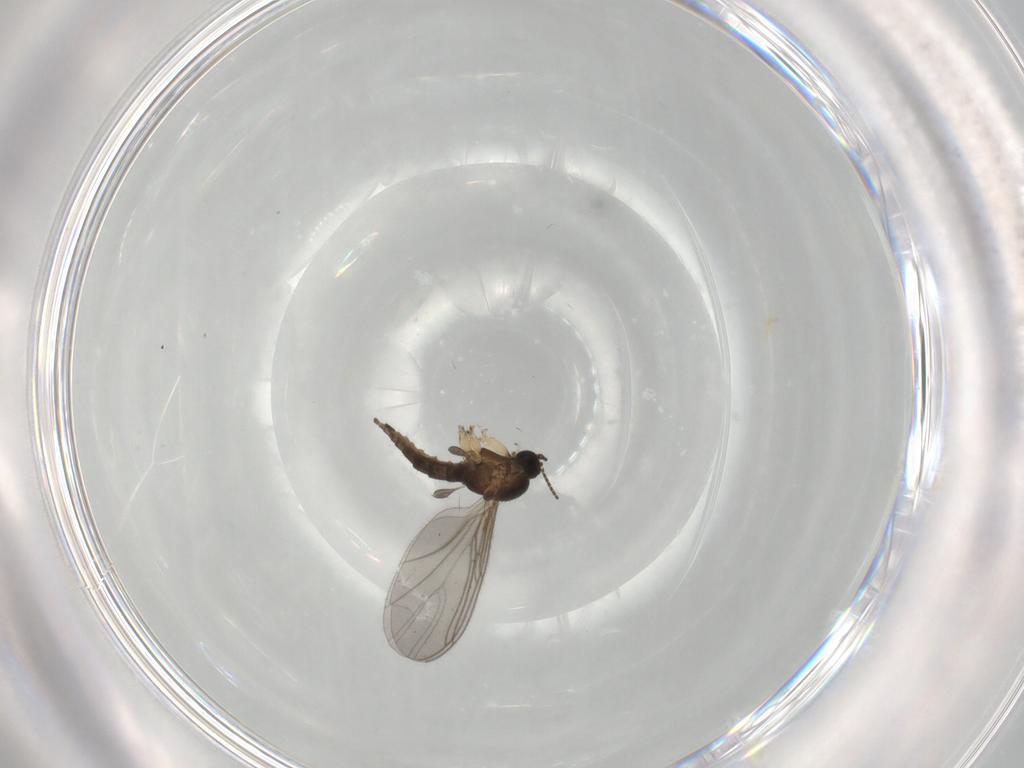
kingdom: Animalia
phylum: Arthropoda
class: Insecta
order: Diptera
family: Sciaridae
